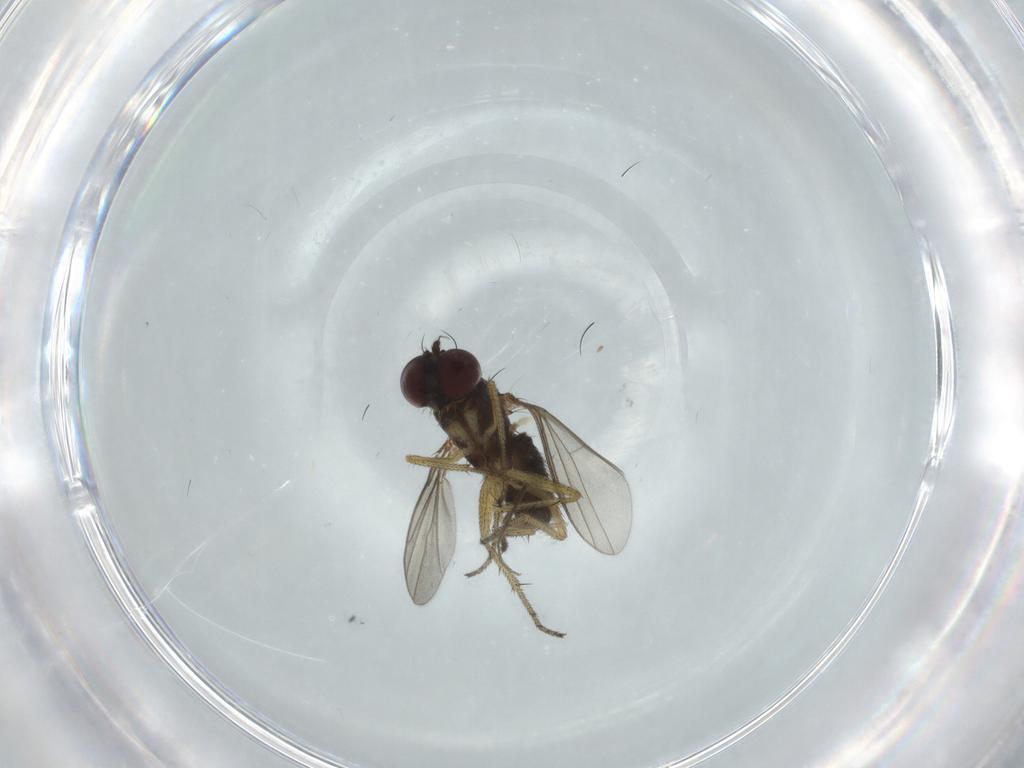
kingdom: Animalia
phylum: Arthropoda
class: Insecta
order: Diptera
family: Dolichopodidae
